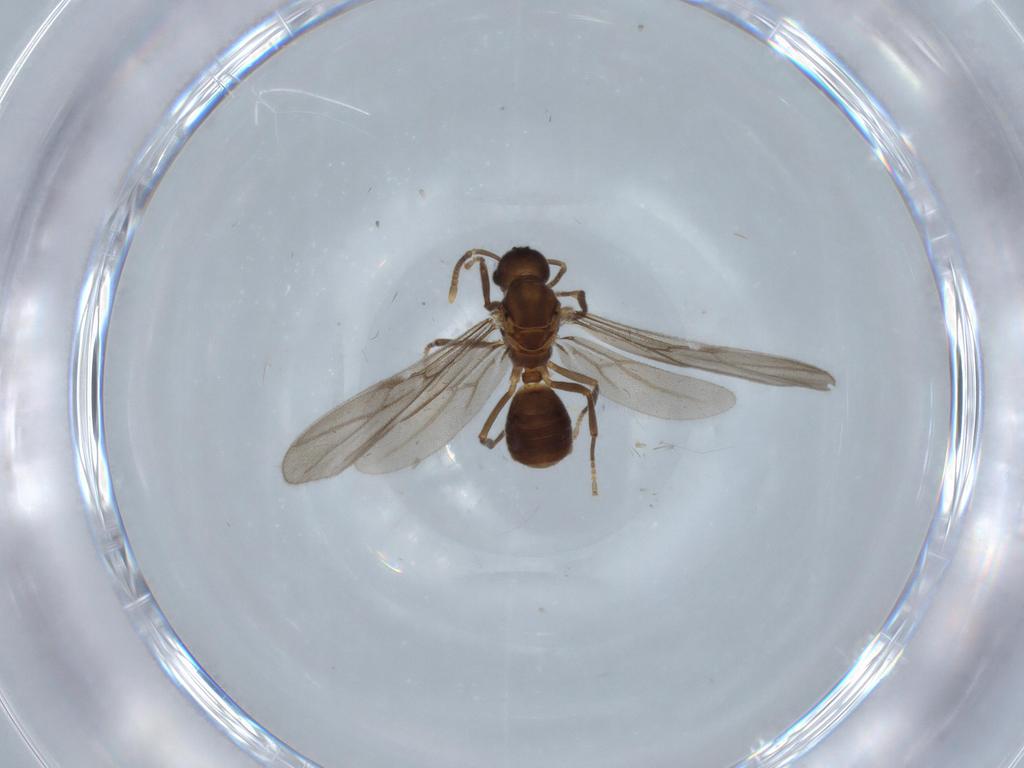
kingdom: Animalia
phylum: Arthropoda
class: Insecta
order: Hymenoptera
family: Formicidae
